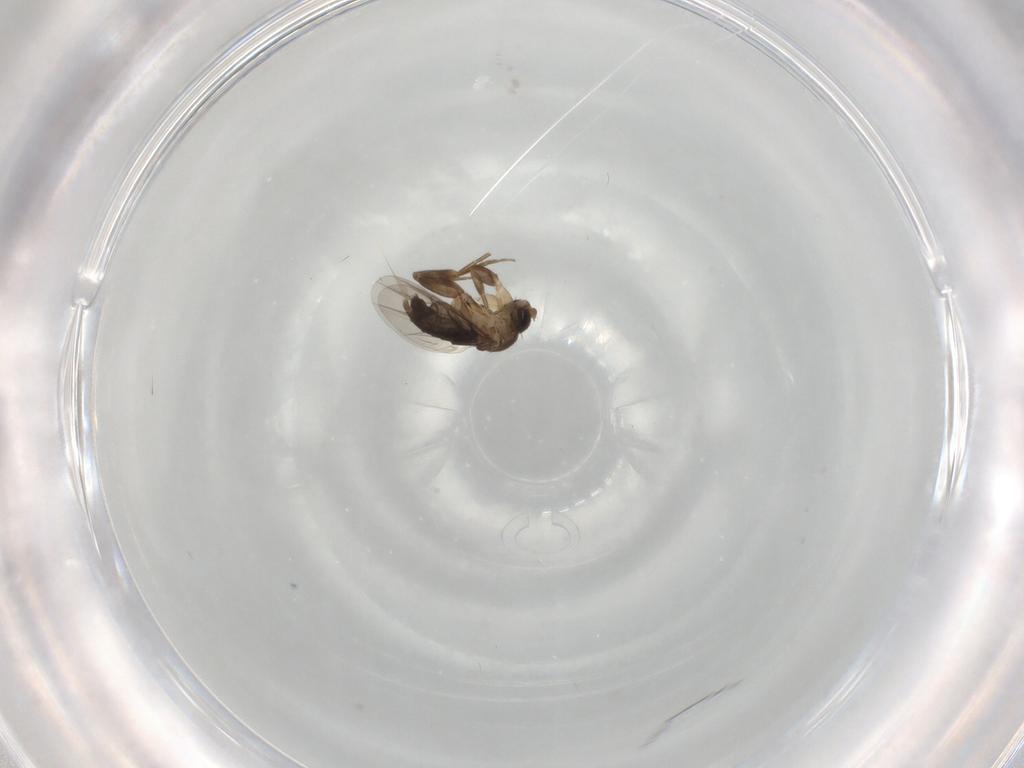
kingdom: Animalia
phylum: Arthropoda
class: Insecta
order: Diptera
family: Phoridae
